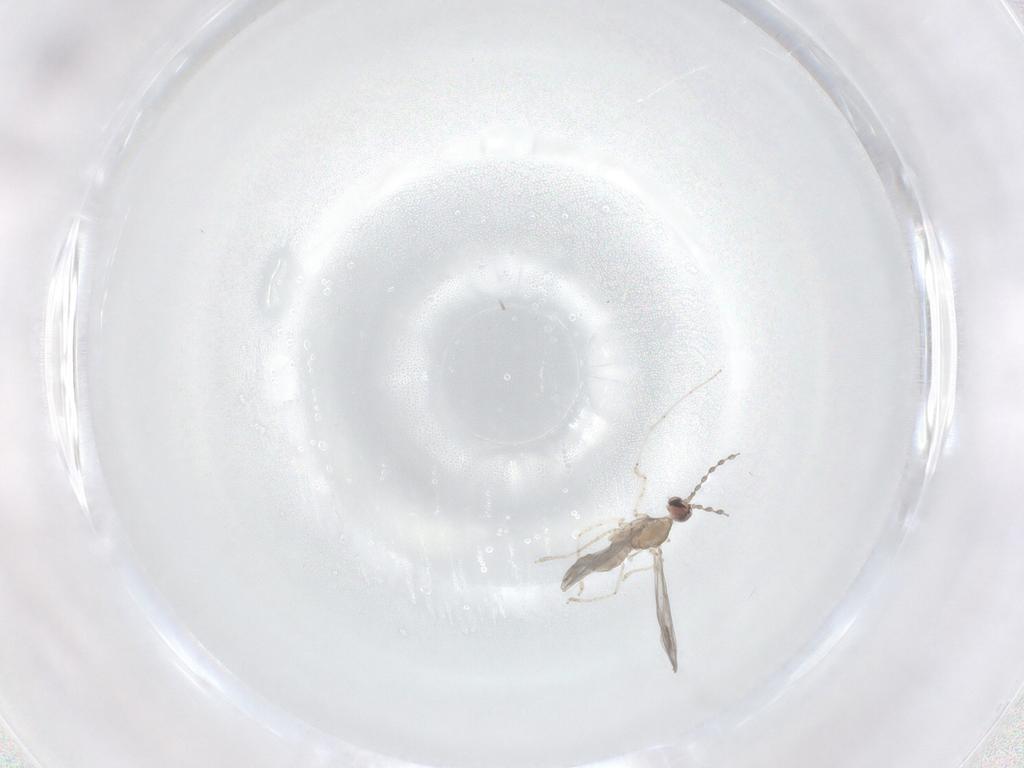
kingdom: Animalia
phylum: Arthropoda
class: Insecta
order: Diptera
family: Cecidomyiidae
